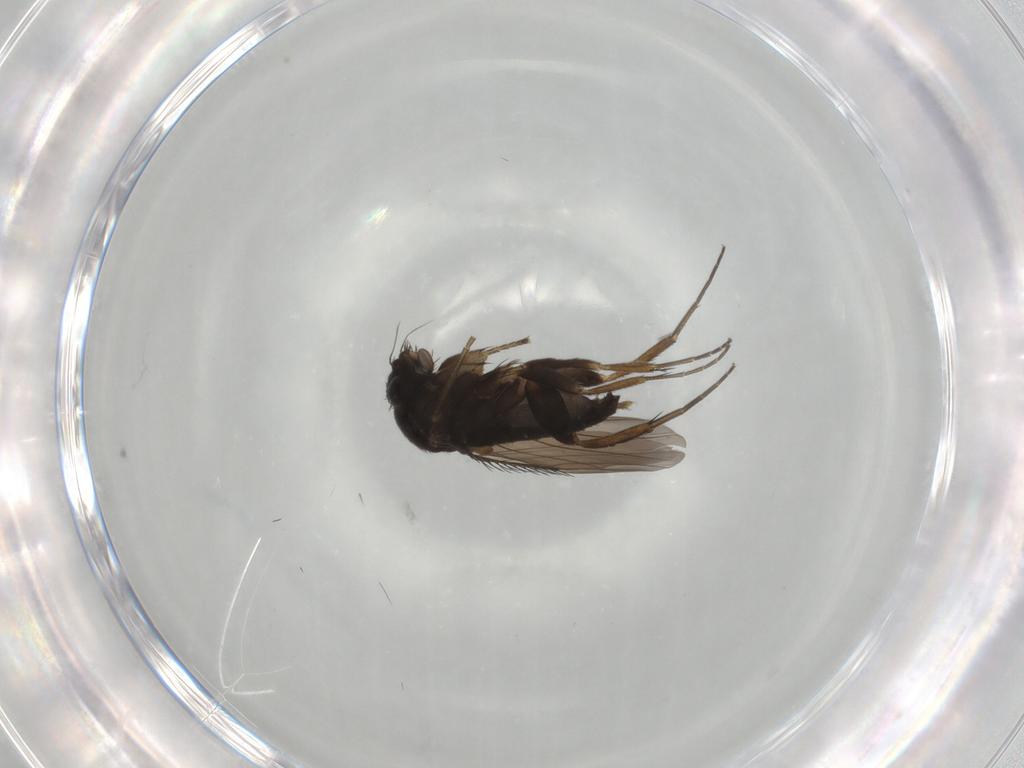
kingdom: Animalia
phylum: Arthropoda
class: Insecta
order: Diptera
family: Phoridae
